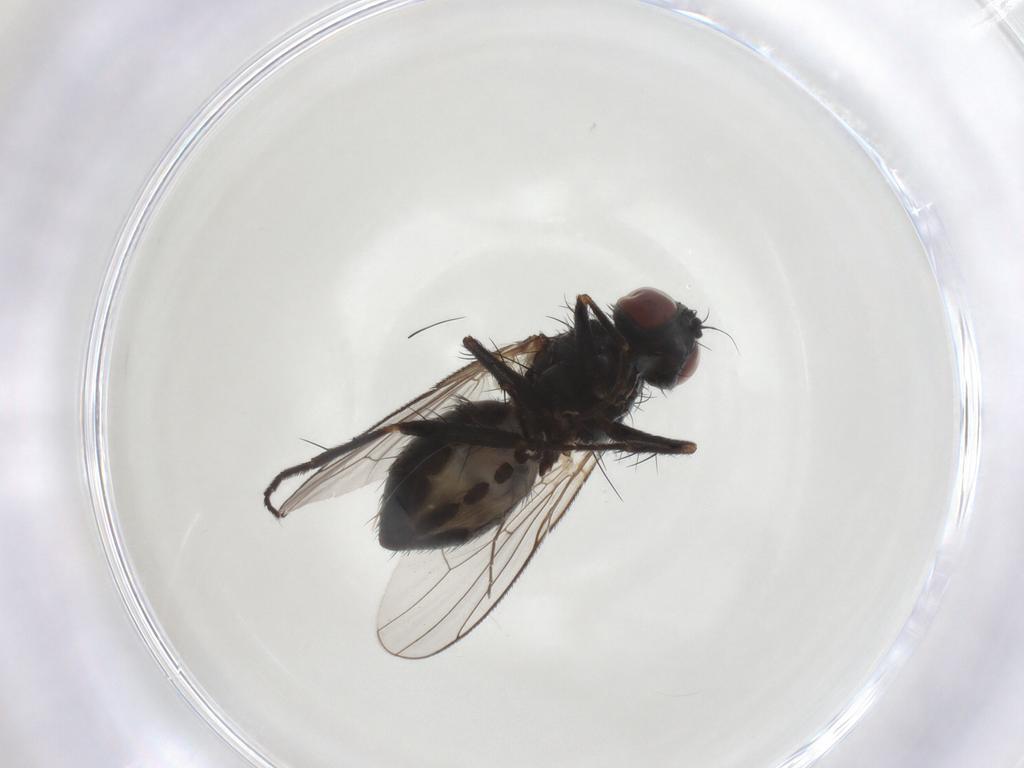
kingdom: Animalia
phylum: Arthropoda
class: Insecta
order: Diptera
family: Muscidae
